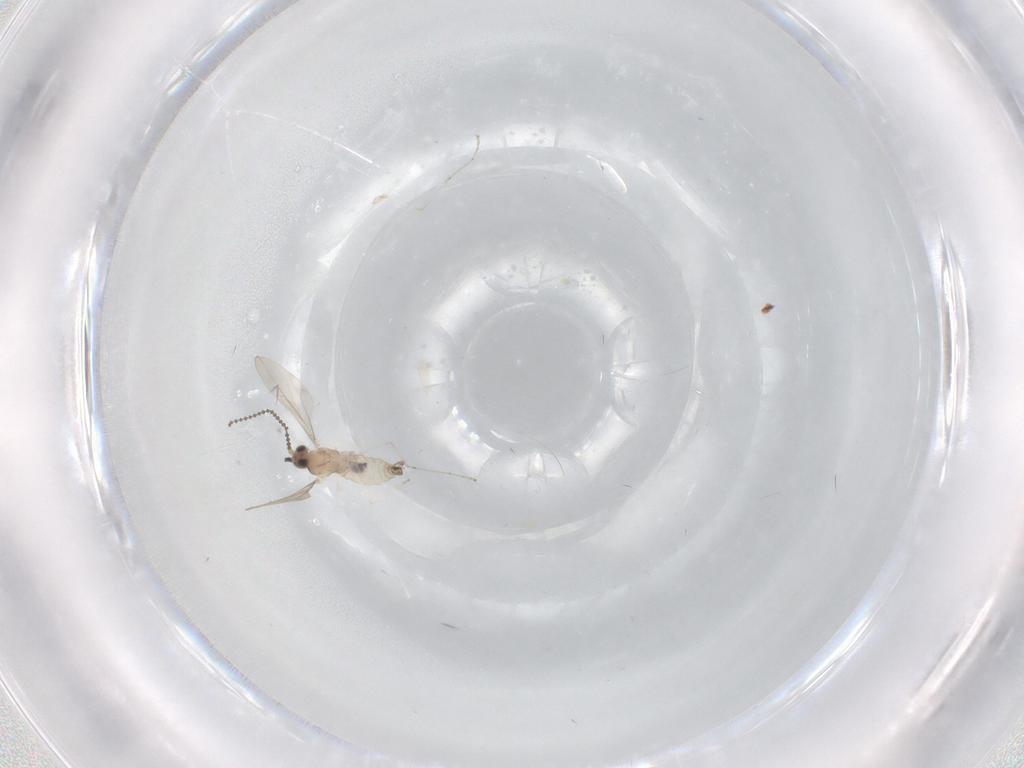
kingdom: Animalia
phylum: Arthropoda
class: Insecta
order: Diptera
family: Cecidomyiidae
